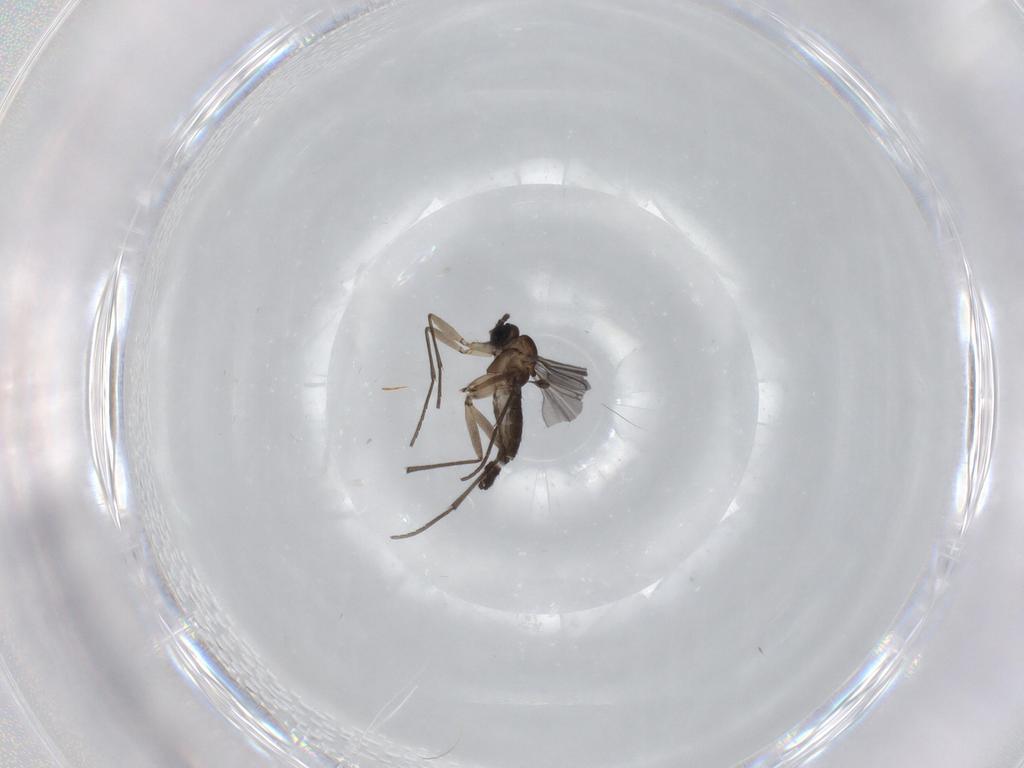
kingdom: Animalia
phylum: Arthropoda
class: Insecta
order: Diptera
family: Sciaridae
